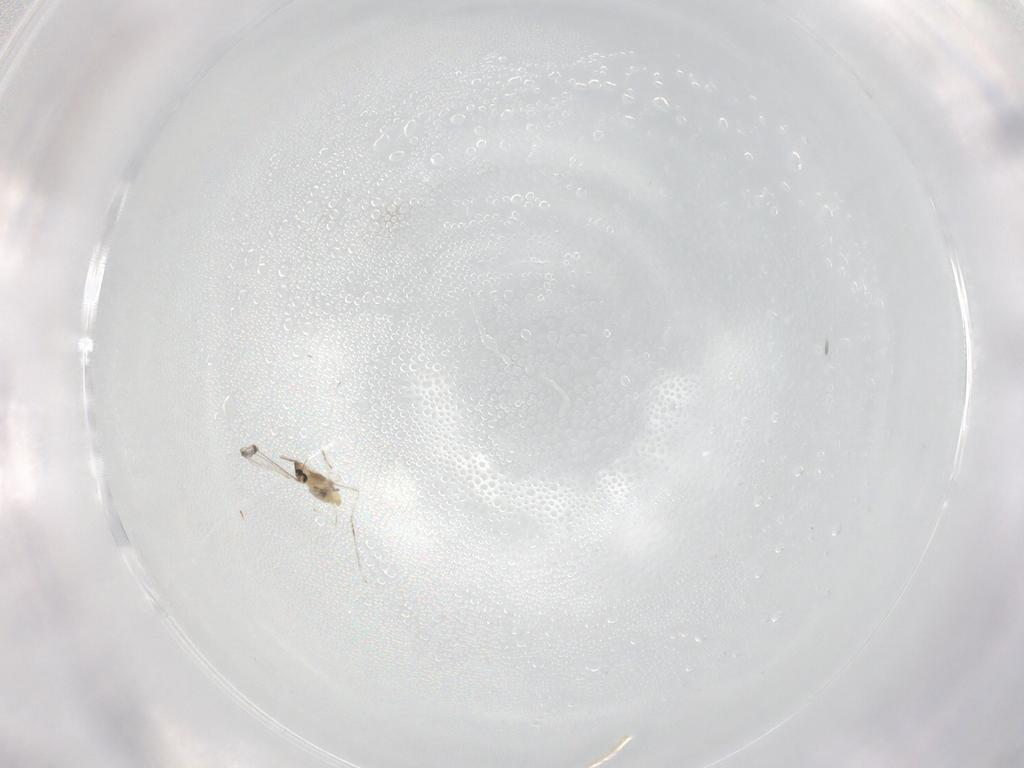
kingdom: Animalia
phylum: Arthropoda
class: Insecta
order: Diptera
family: Cecidomyiidae
